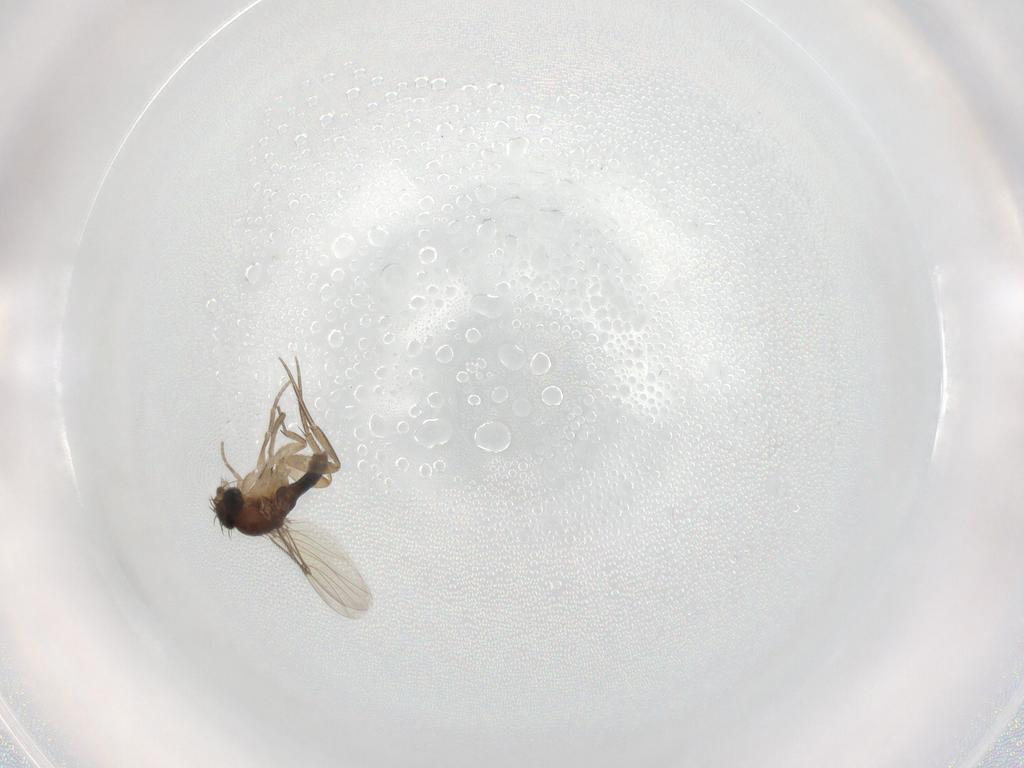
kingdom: Animalia
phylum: Arthropoda
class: Insecta
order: Diptera
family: Phoridae
